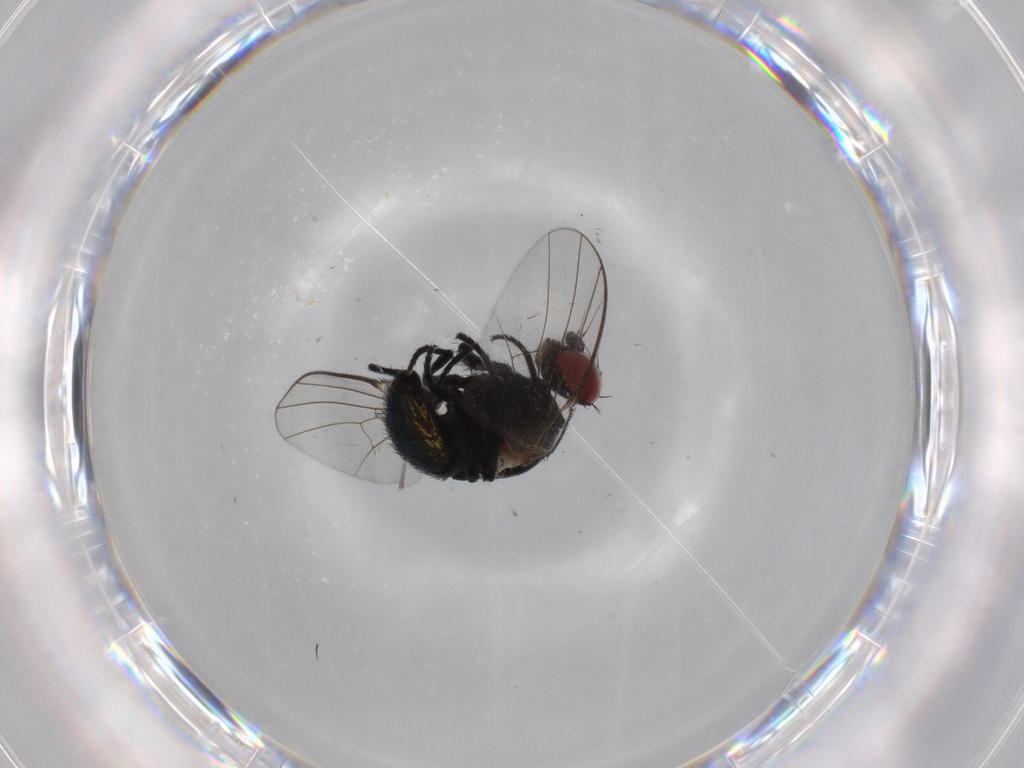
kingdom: Animalia
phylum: Arthropoda
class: Insecta
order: Diptera
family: Agromyzidae
